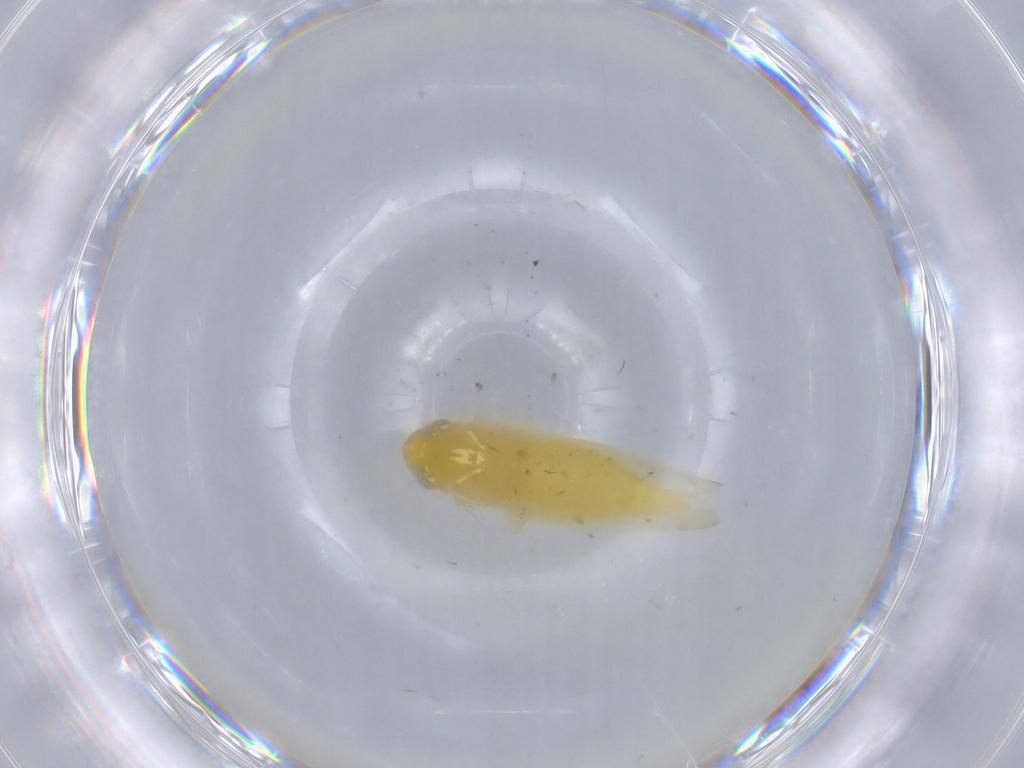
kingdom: Animalia
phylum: Arthropoda
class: Insecta
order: Hemiptera
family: Cicadellidae
